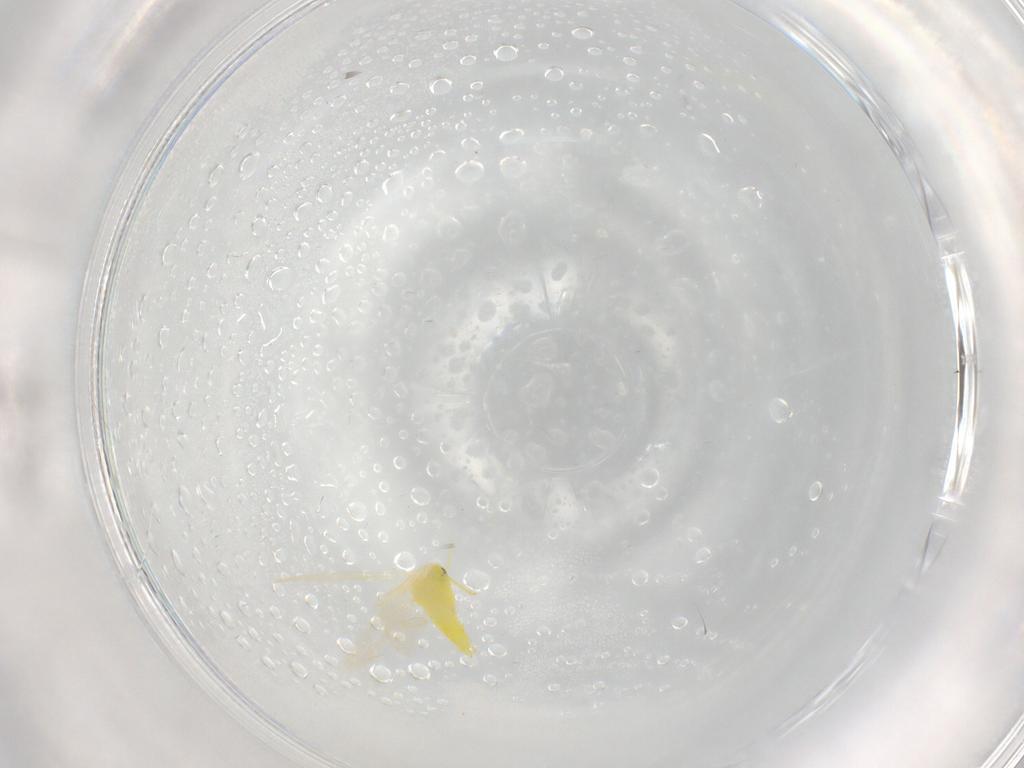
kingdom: Animalia
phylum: Arthropoda
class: Insecta
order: Hemiptera
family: Aleyrodidae
